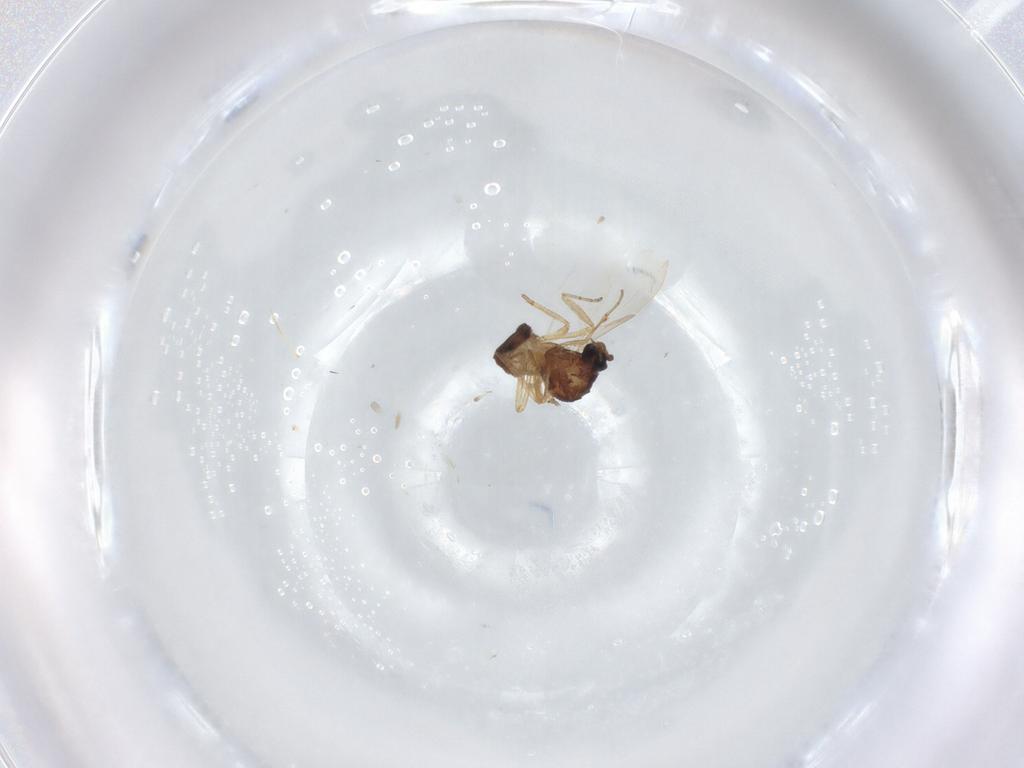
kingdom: Animalia
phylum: Arthropoda
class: Insecta
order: Diptera
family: Ceratopogonidae
